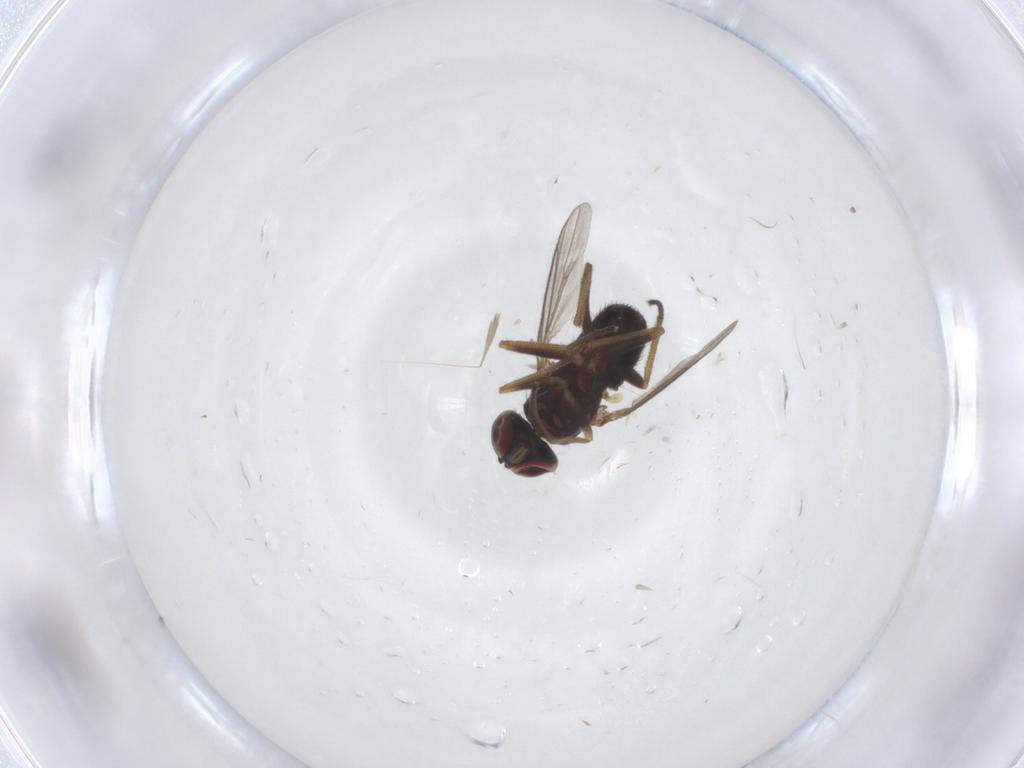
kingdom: Animalia
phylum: Arthropoda
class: Insecta
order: Diptera
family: Dolichopodidae
